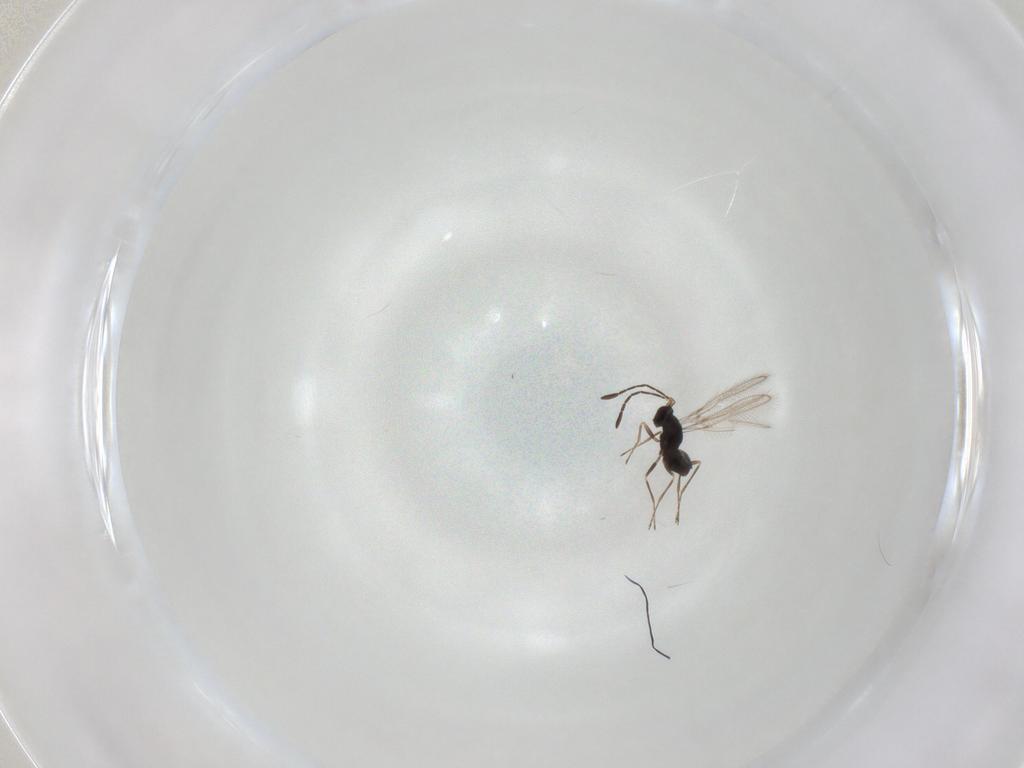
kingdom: Animalia
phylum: Arthropoda
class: Insecta
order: Hymenoptera
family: Mymaridae
